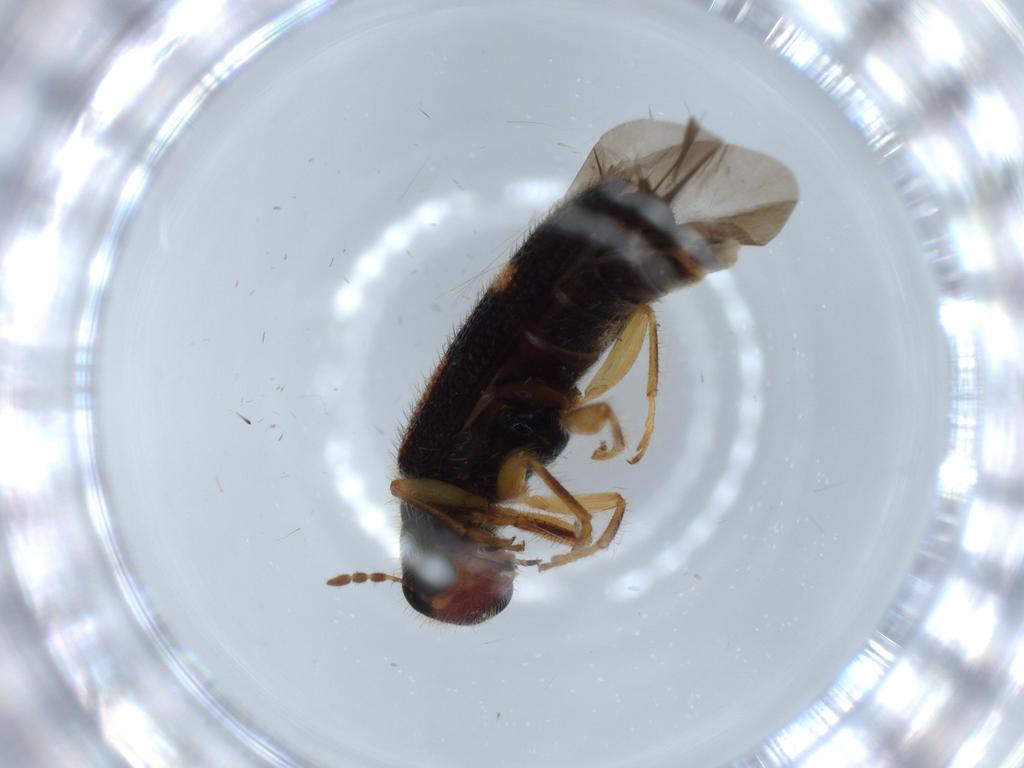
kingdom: Animalia
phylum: Arthropoda
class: Insecta
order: Coleoptera
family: Cleridae
